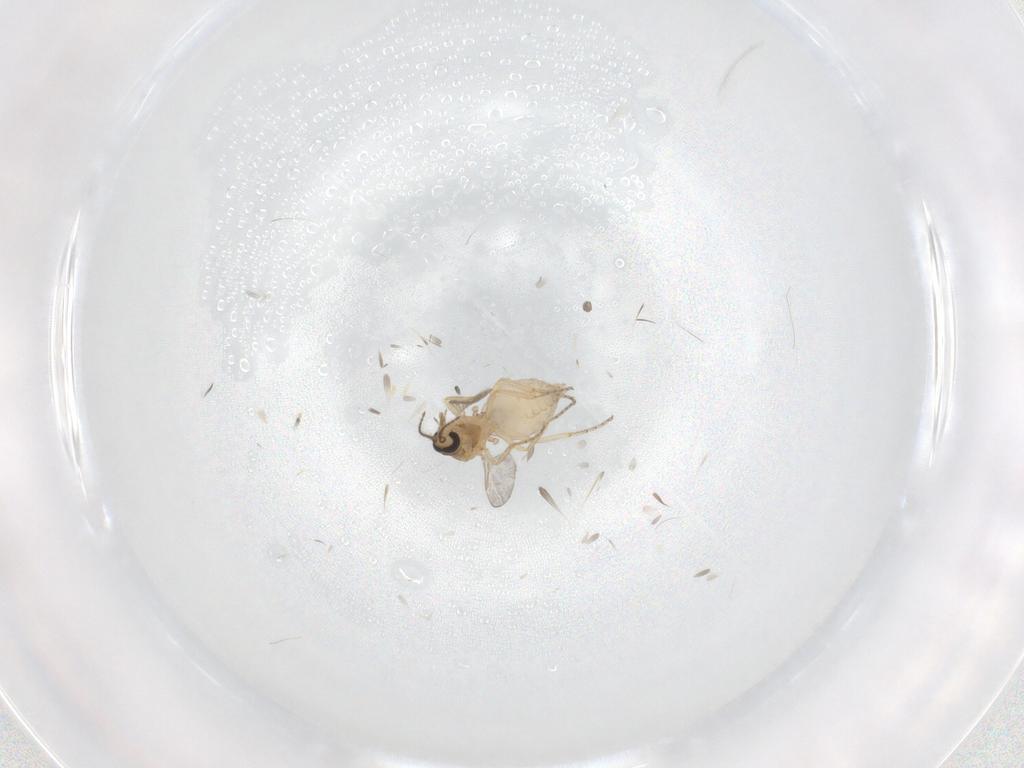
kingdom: Animalia
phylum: Arthropoda
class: Insecta
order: Diptera
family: Ceratopogonidae
